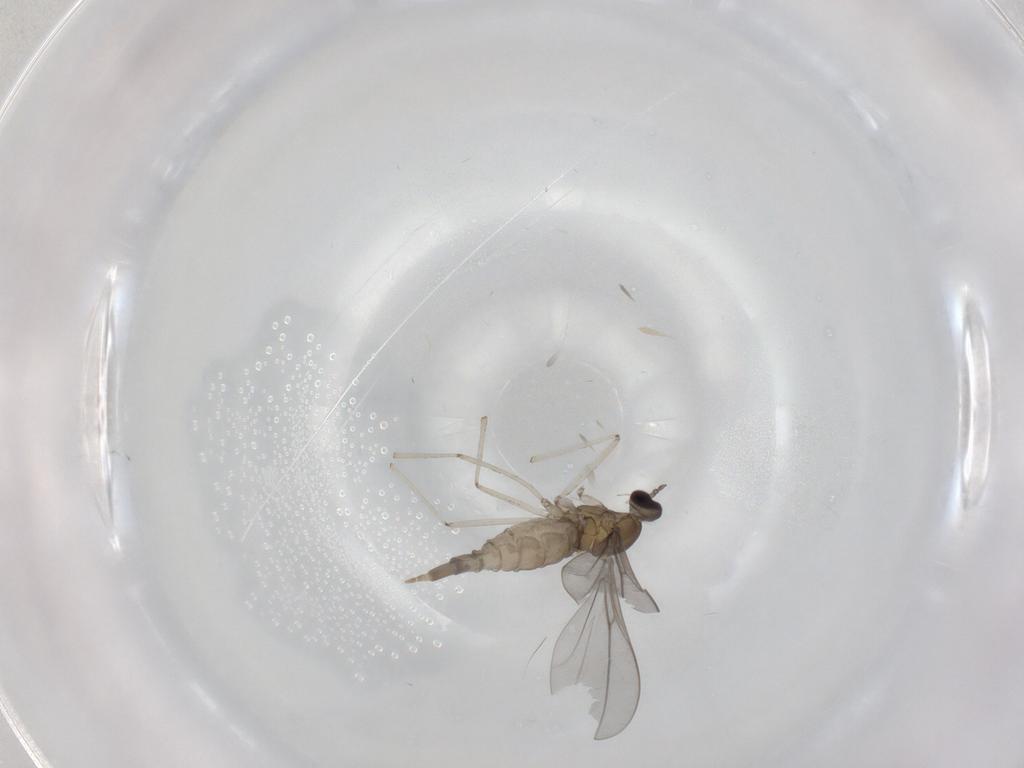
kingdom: Animalia
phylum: Arthropoda
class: Insecta
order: Diptera
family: Cecidomyiidae
